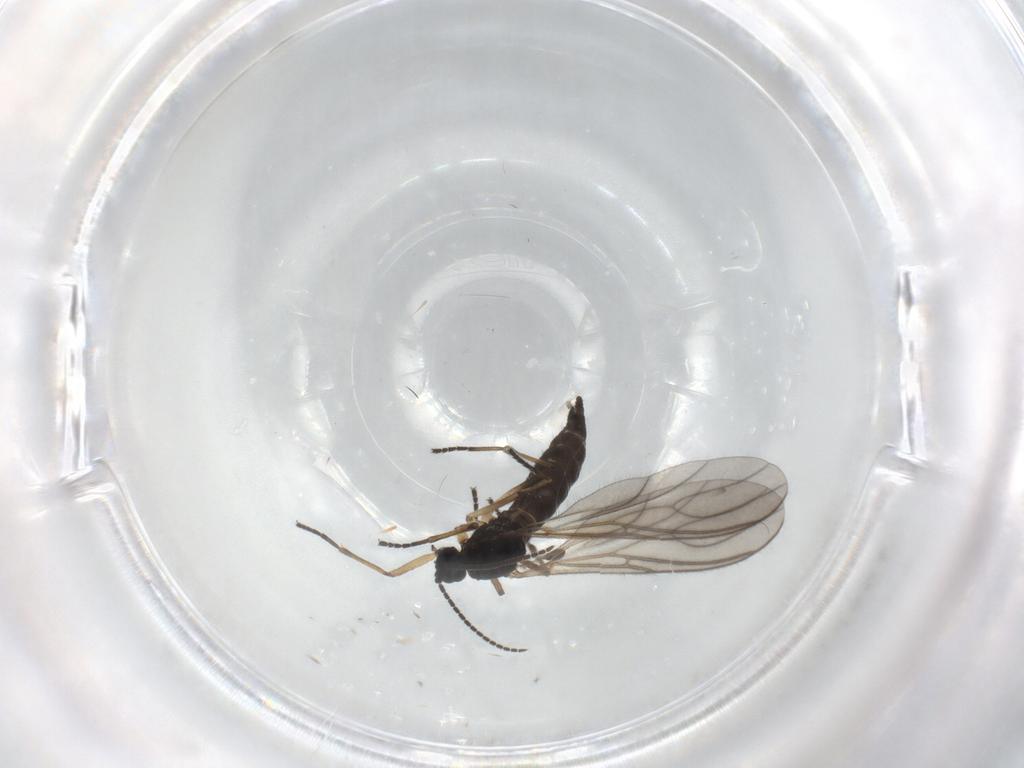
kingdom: Animalia
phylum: Arthropoda
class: Insecta
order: Diptera
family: Sciaridae
